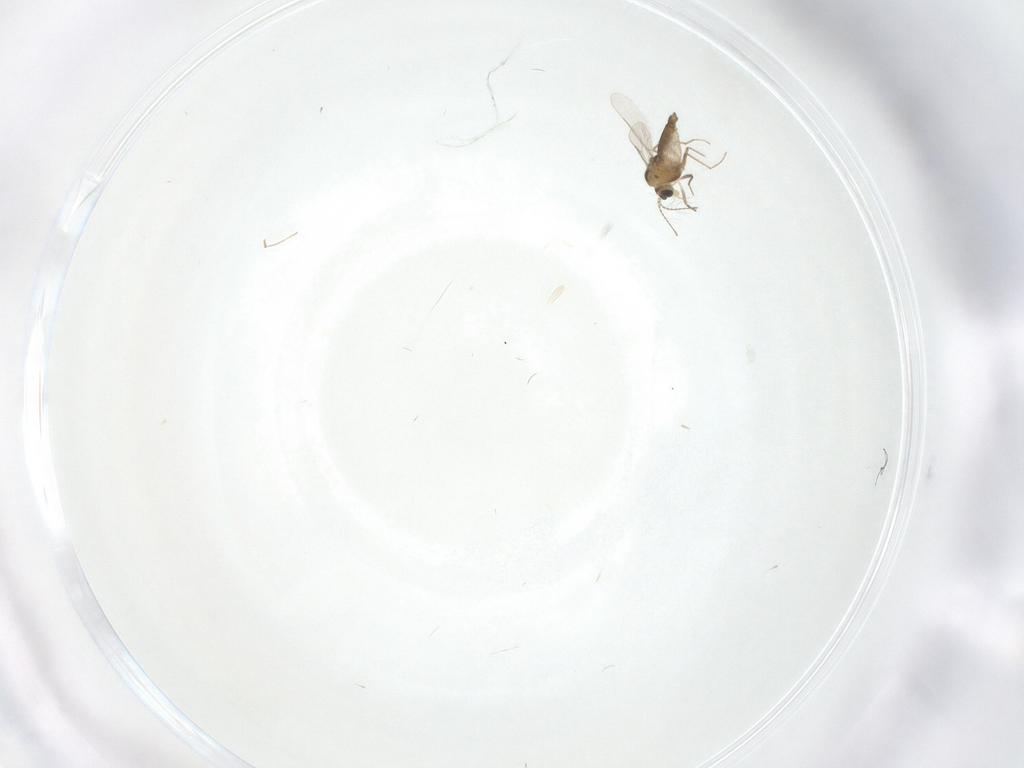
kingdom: Animalia
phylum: Arthropoda
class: Insecta
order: Diptera
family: Chironomidae
